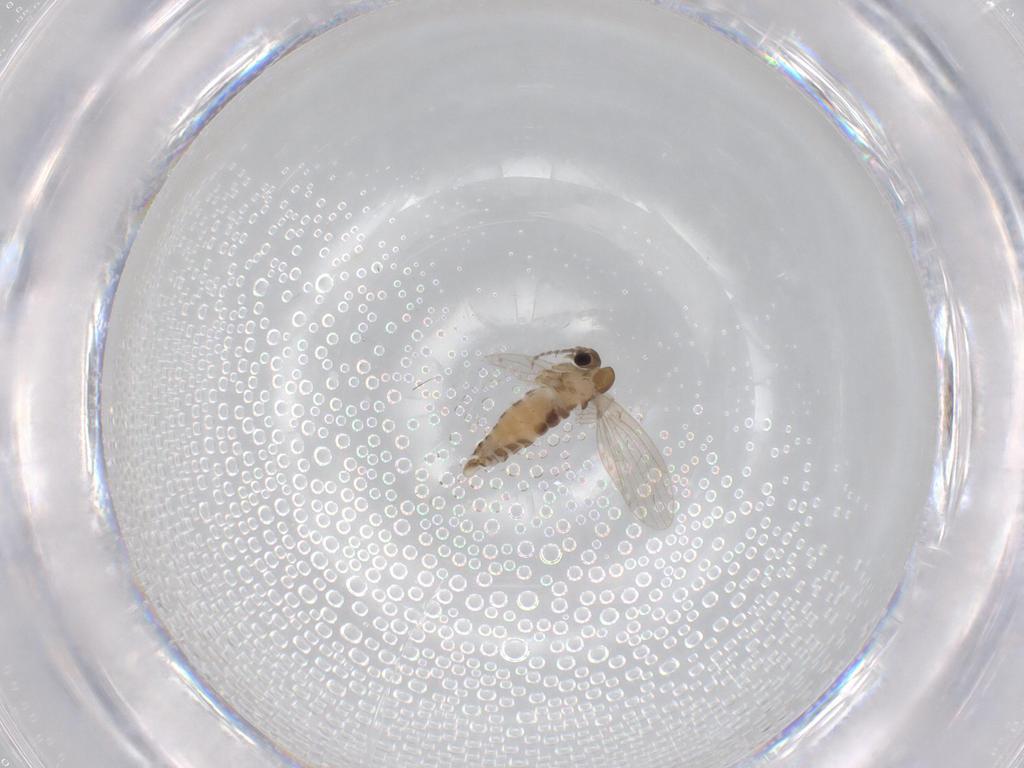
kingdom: Animalia
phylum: Arthropoda
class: Insecta
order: Diptera
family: Psychodidae
